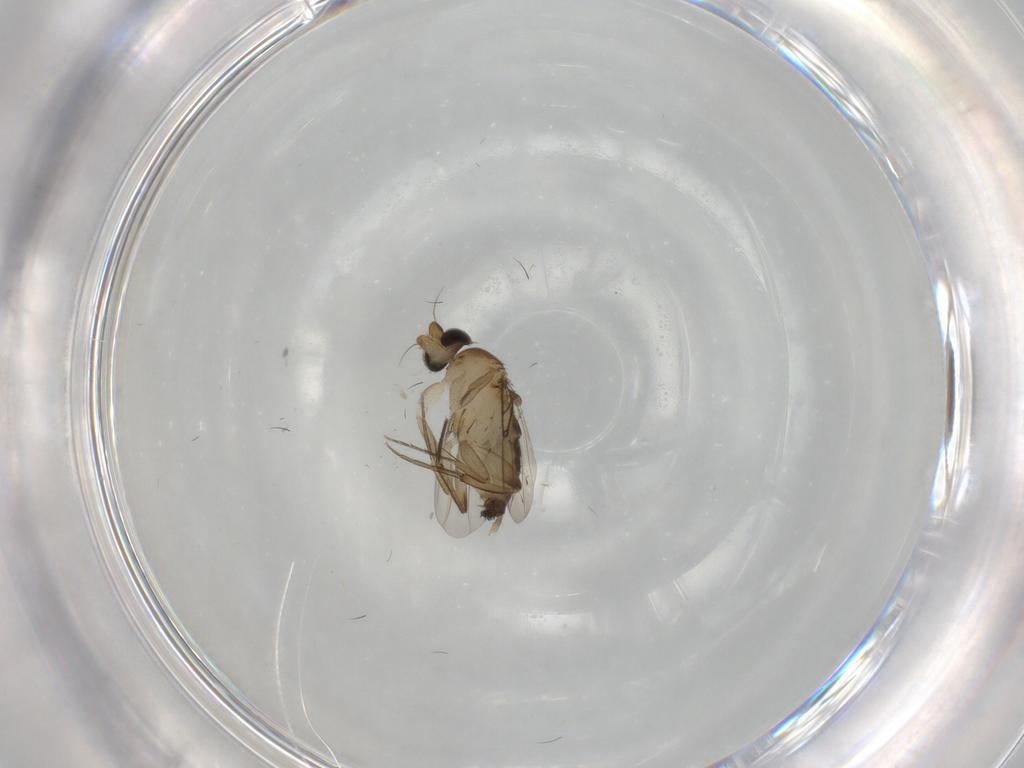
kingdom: Animalia
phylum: Arthropoda
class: Insecta
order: Diptera
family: Phoridae
